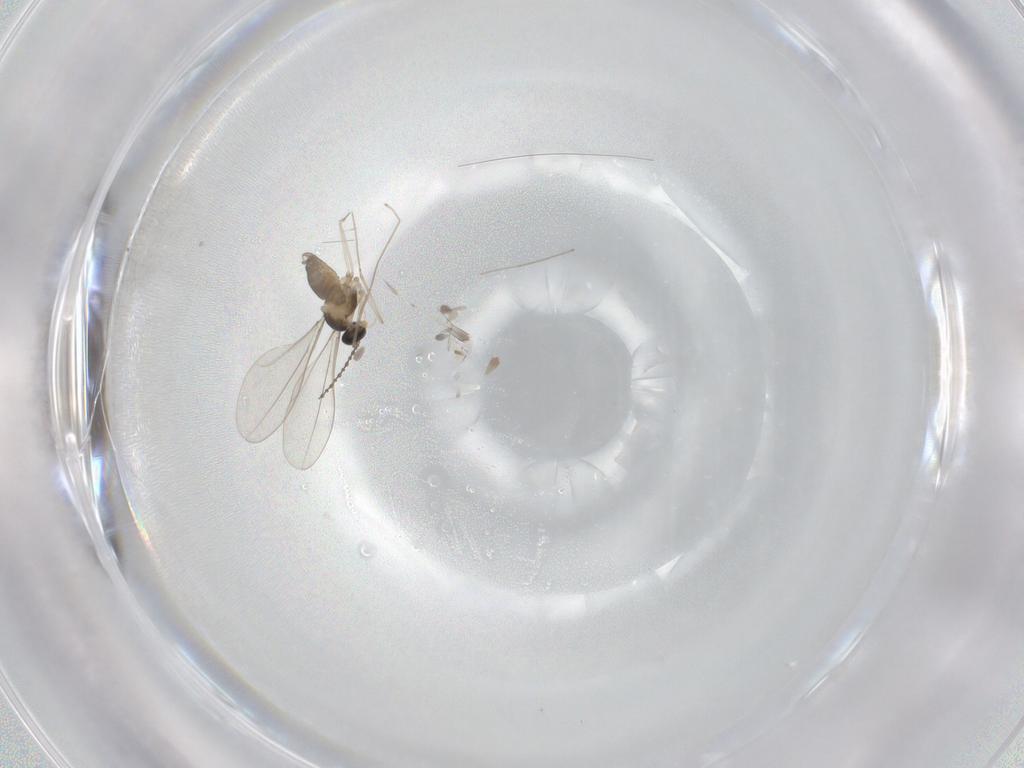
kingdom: Animalia
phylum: Arthropoda
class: Insecta
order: Diptera
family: Cecidomyiidae
